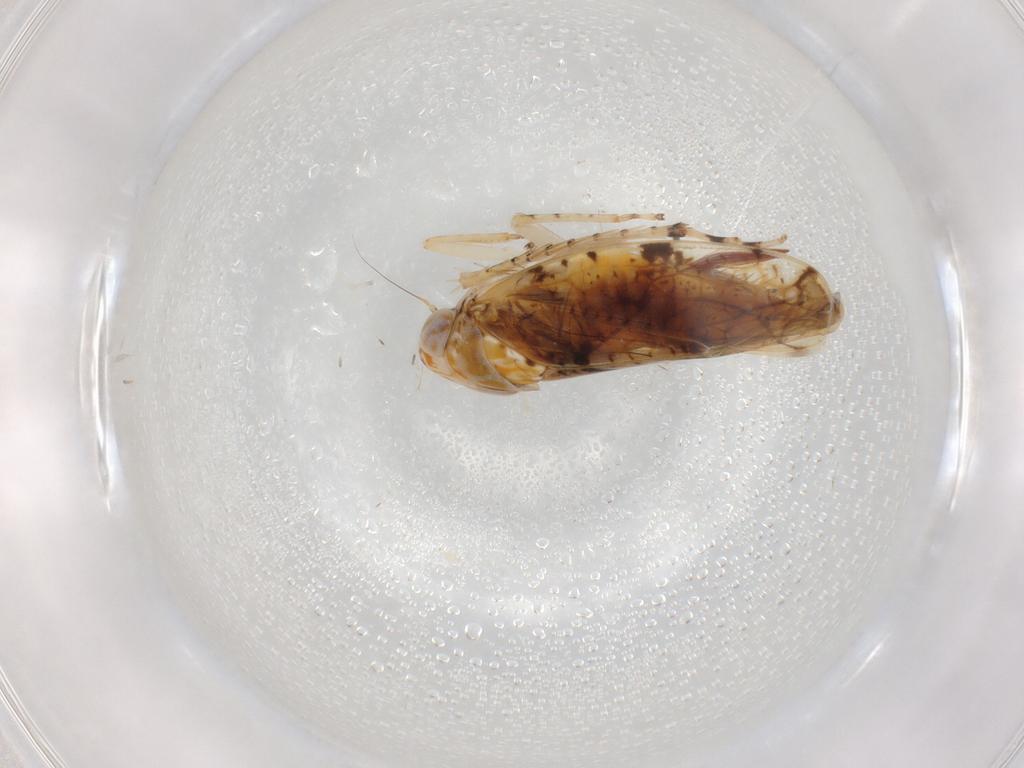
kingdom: Animalia
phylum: Arthropoda
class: Insecta
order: Hemiptera
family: Cicadellidae
